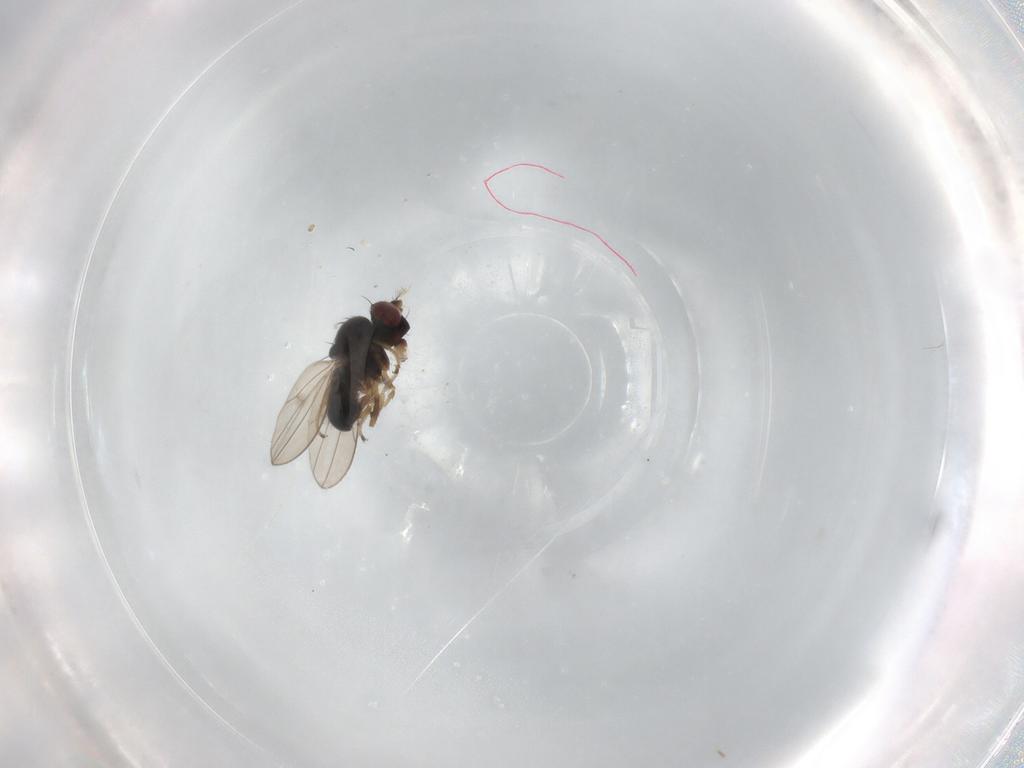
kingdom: Animalia
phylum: Arthropoda
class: Insecta
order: Diptera
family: Ephydridae
